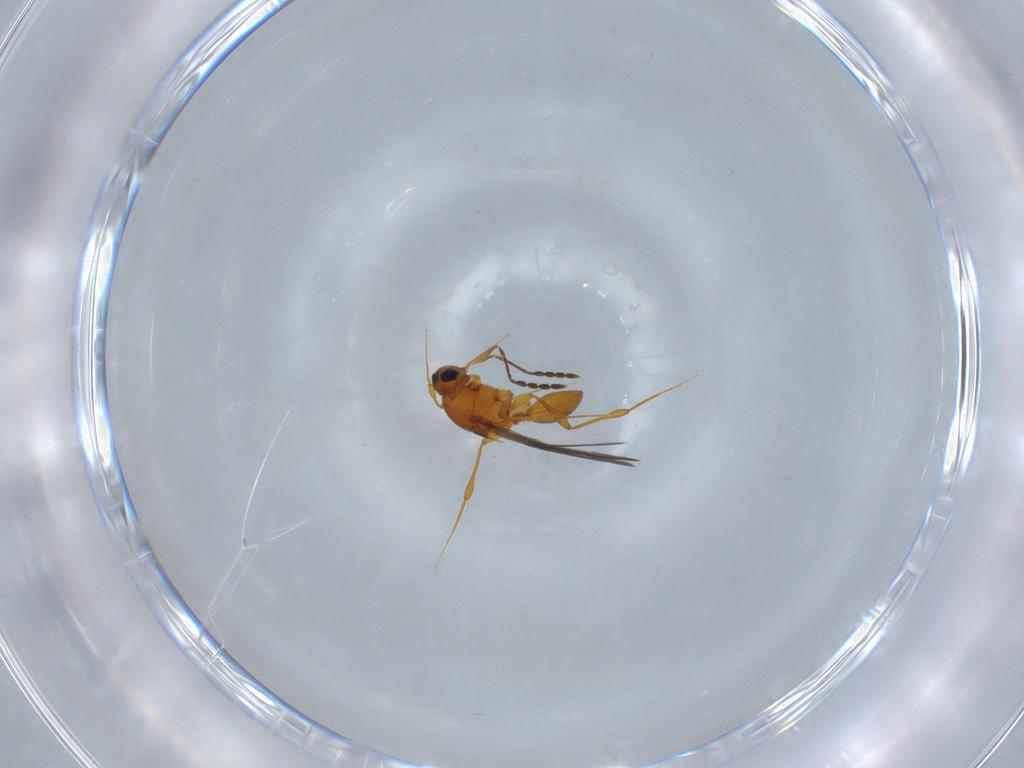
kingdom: Animalia
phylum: Arthropoda
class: Insecta
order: Hymenoptera
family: Platygastridae
